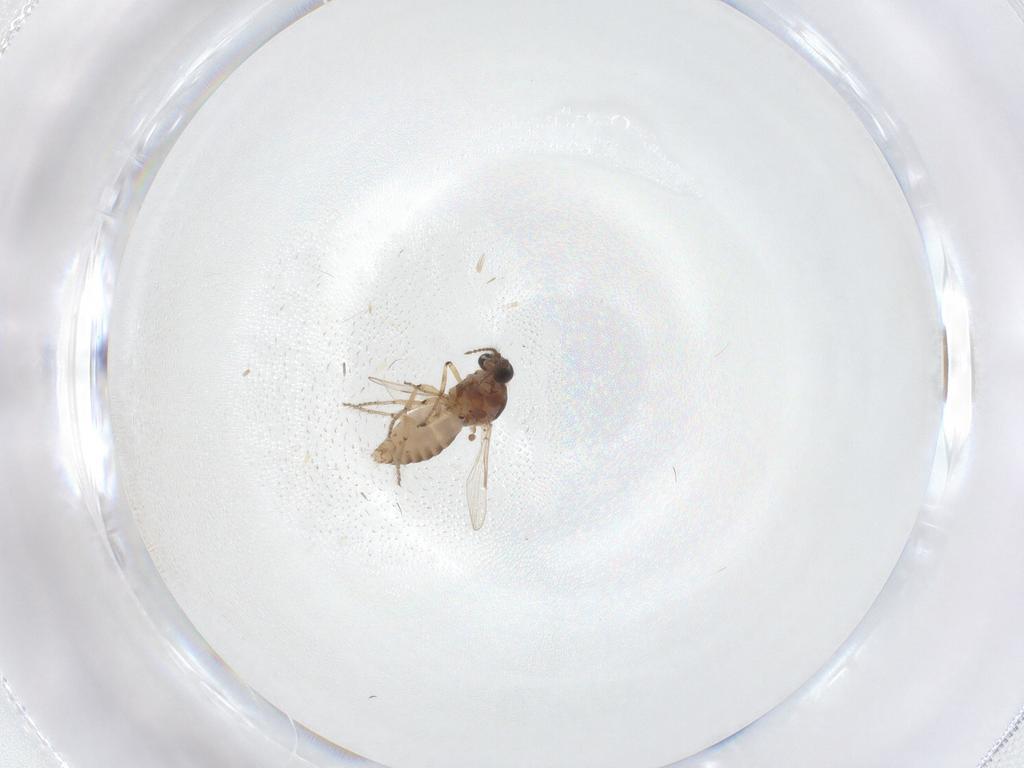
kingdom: Animalia
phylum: Arthropoda
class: Insecta
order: Diptera
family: Ceratopogonidae
